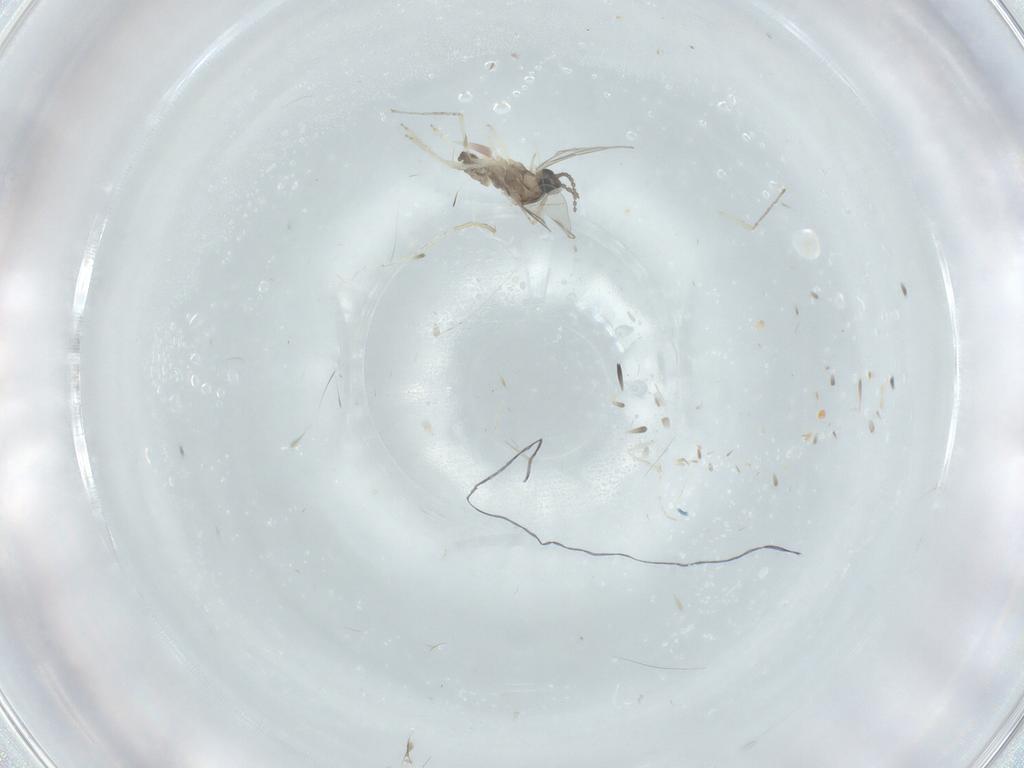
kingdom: Animalia
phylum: Arthropoda
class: Insecta
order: Diptera
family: Cecidomyiidae
